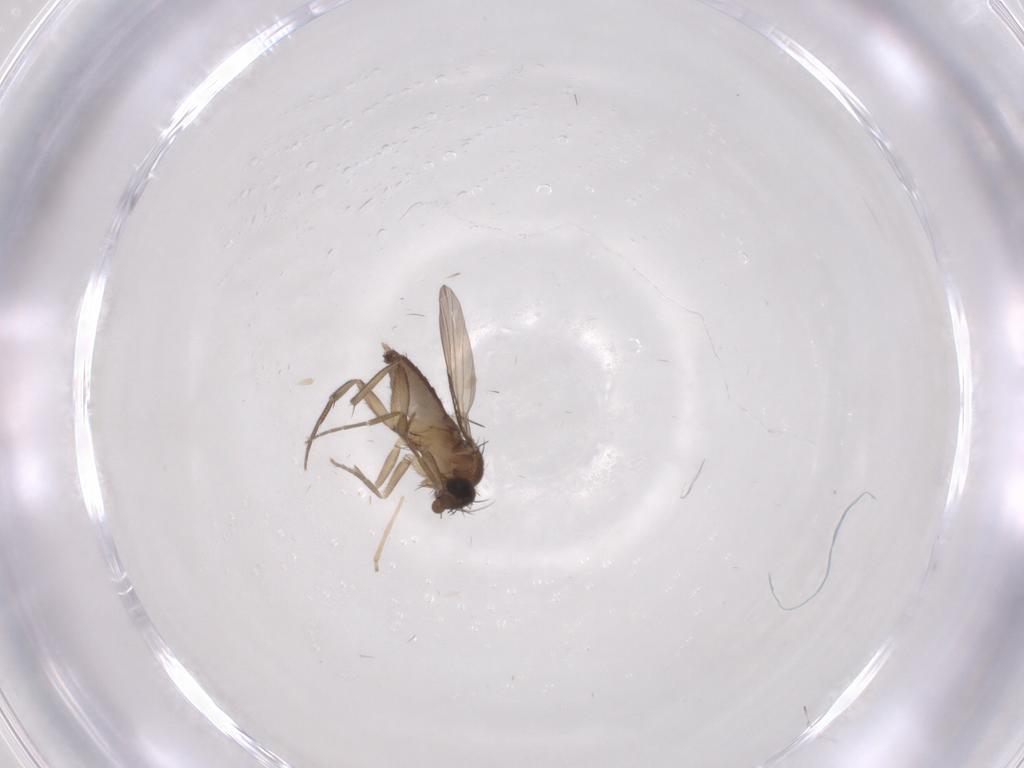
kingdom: Animalia
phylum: Arthropoda
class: Insecta
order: Diptera
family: Phoridae
